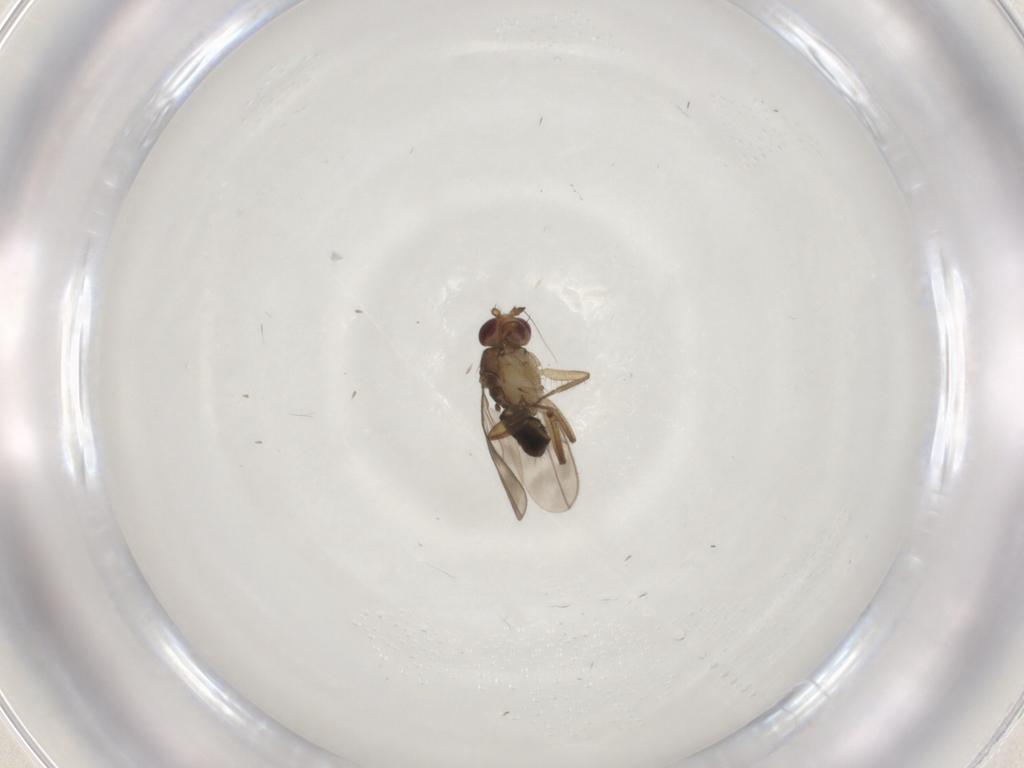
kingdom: Animalia
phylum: Arthropoda
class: Insecta
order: Diptera
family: Sphaeroceridae
